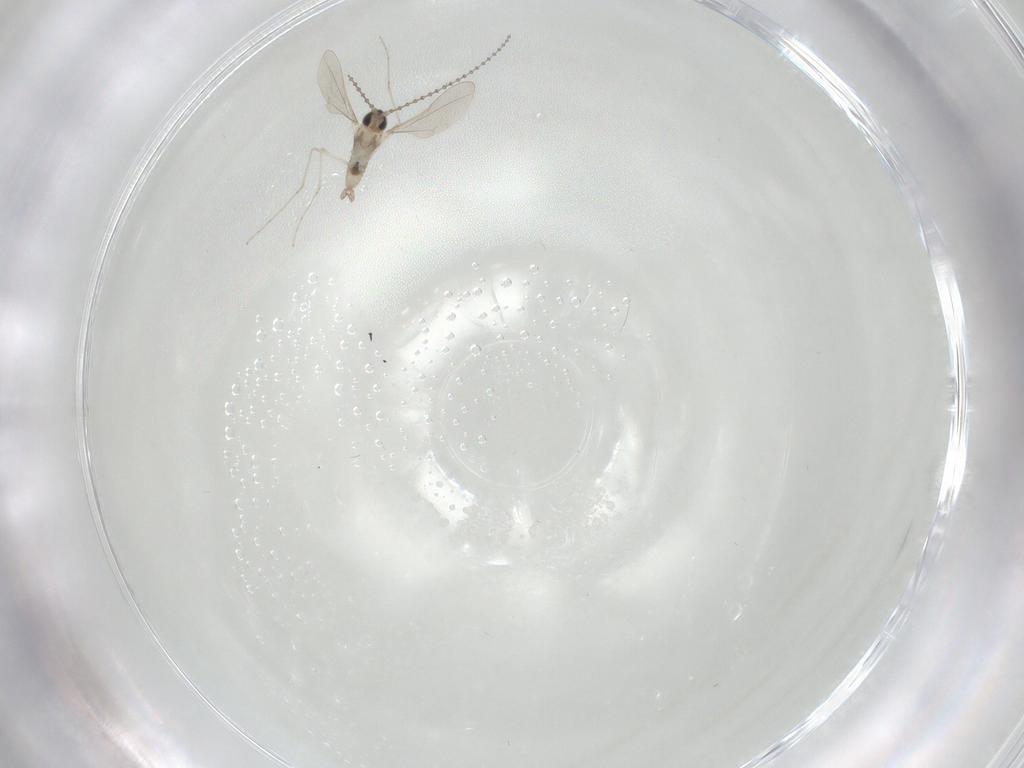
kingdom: Animalia
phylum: Arthropoda
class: Insecta
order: Diptera
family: Cecidomyiidae
